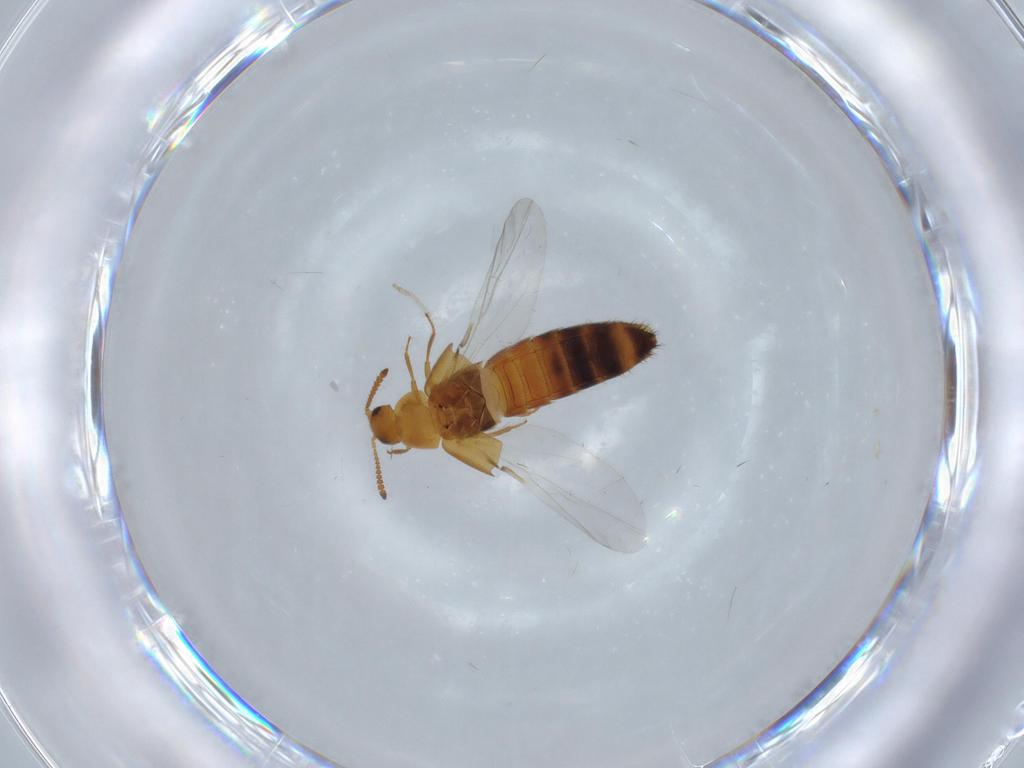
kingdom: Animalia
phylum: Arthropoda
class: Insecta
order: Coleoptera
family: Staphylinidae
